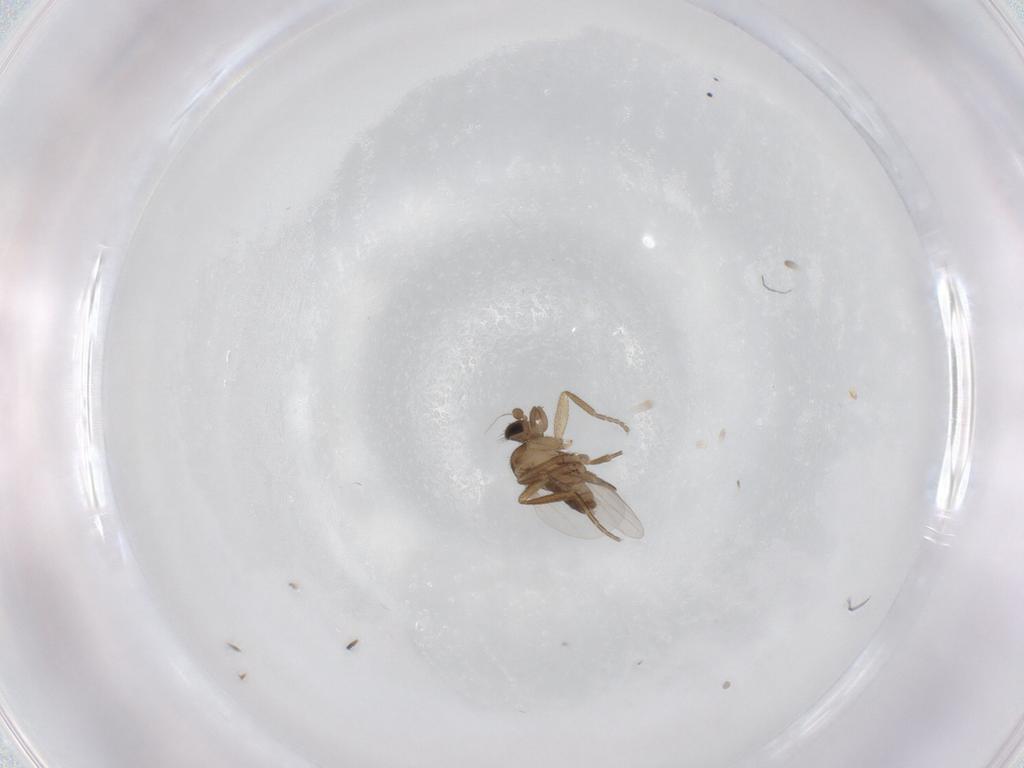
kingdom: Animalia
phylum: Arthropoda
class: Insecta
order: Diptera
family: Phoridae
